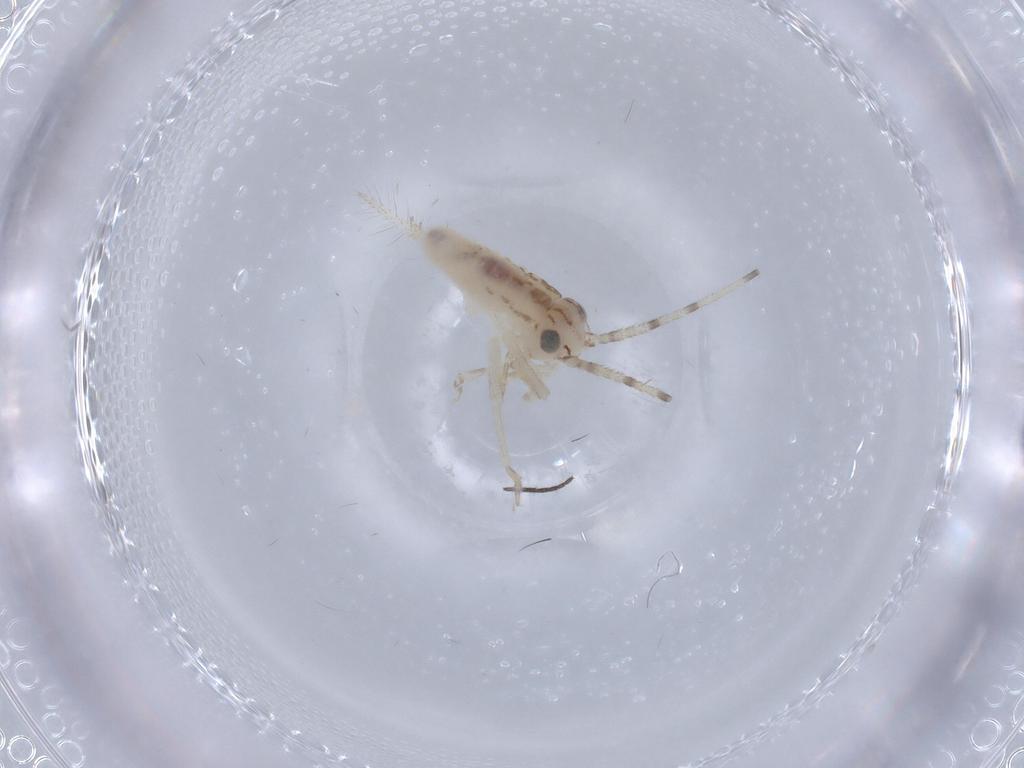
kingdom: Animalia
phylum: Arthropoda
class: Insecta
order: Orthoptera
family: Trigonidiidae
